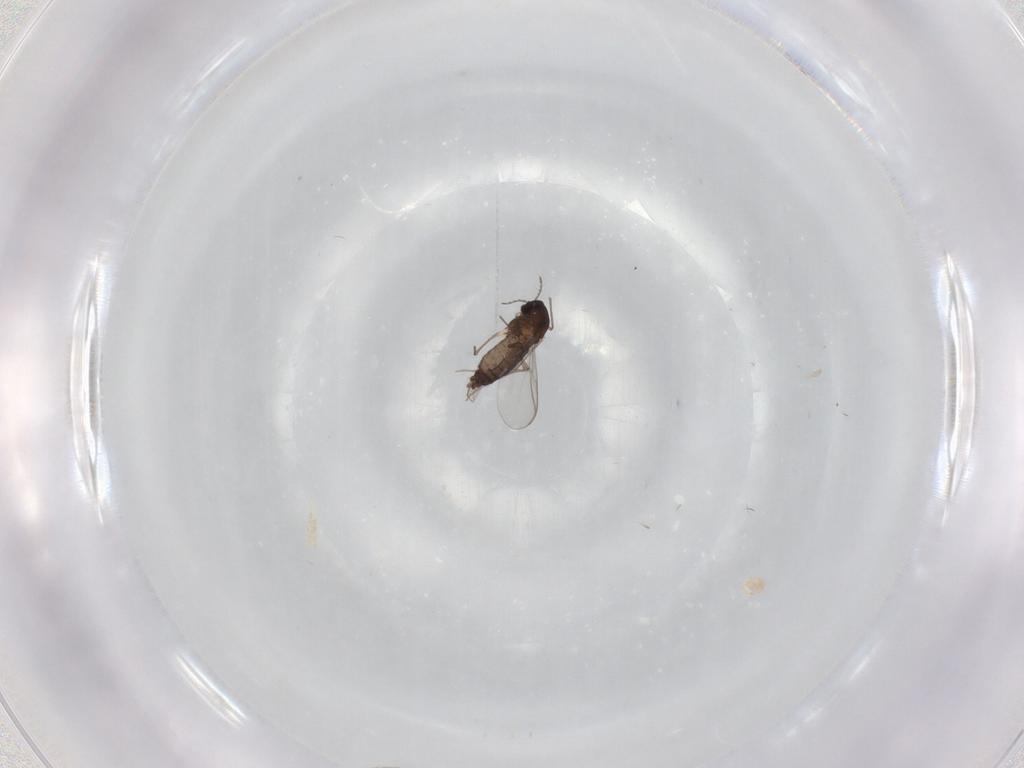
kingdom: Animalia
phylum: Arthropoda
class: Insecta
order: Diptera
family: Chironomidae
